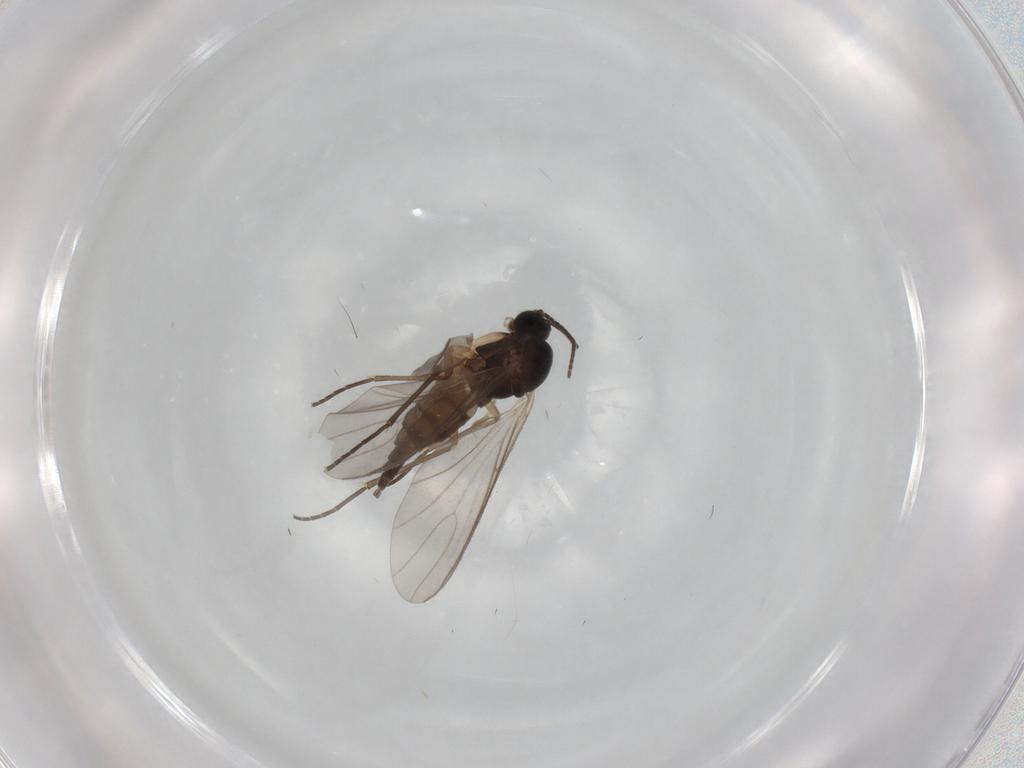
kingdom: Animalia
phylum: Arthropoda
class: Insecta
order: Diptera
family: Sciaridae
